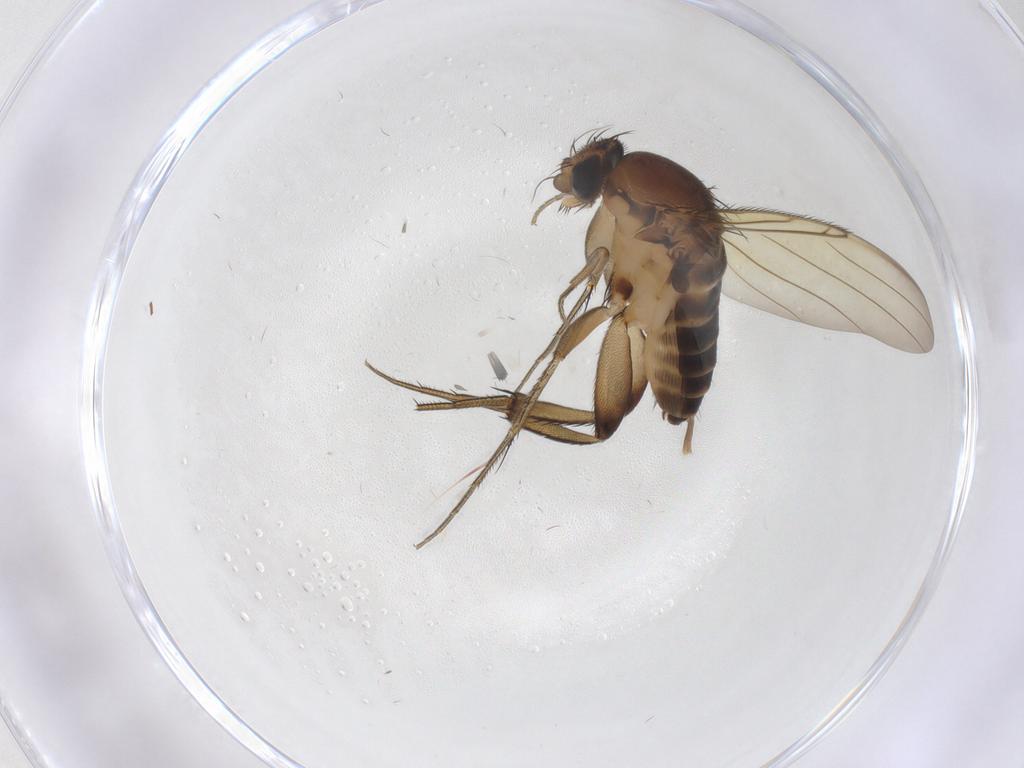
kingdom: Animalia
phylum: Arthropoda
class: Insecta
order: Diptera
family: Phoridae
